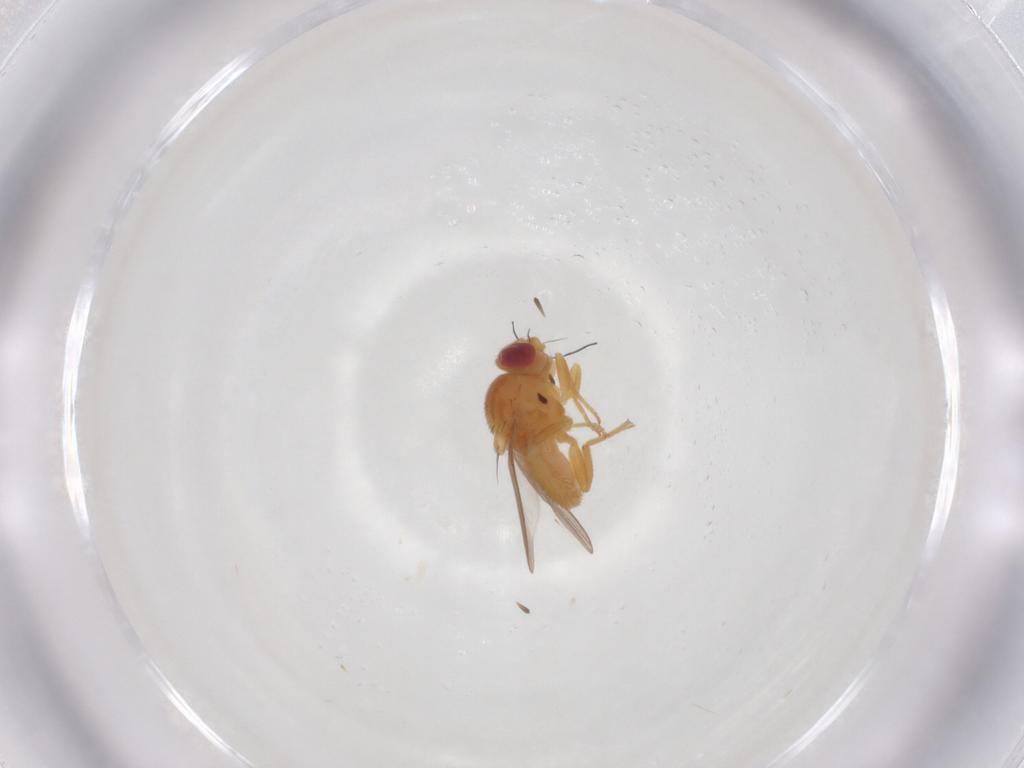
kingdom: Animalia
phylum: Arthropoda
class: Insecta
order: Diptera
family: Chloropidae
